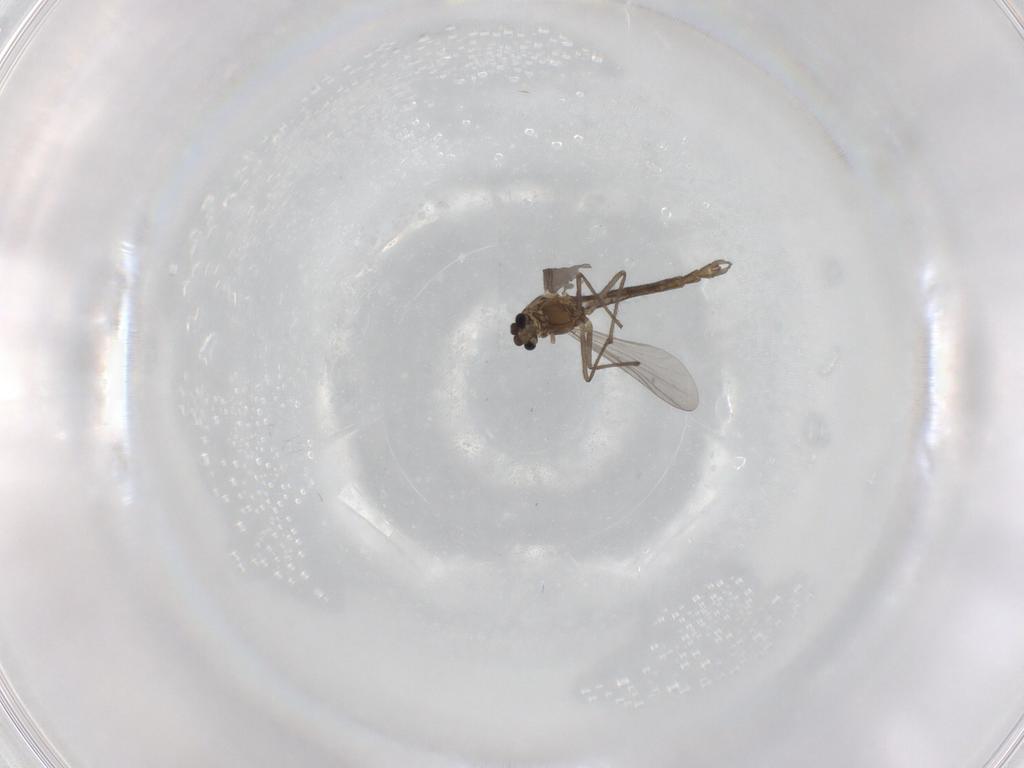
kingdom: Animalia
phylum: Arthropoda
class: Insecta
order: Diptera
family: Chironomidae
